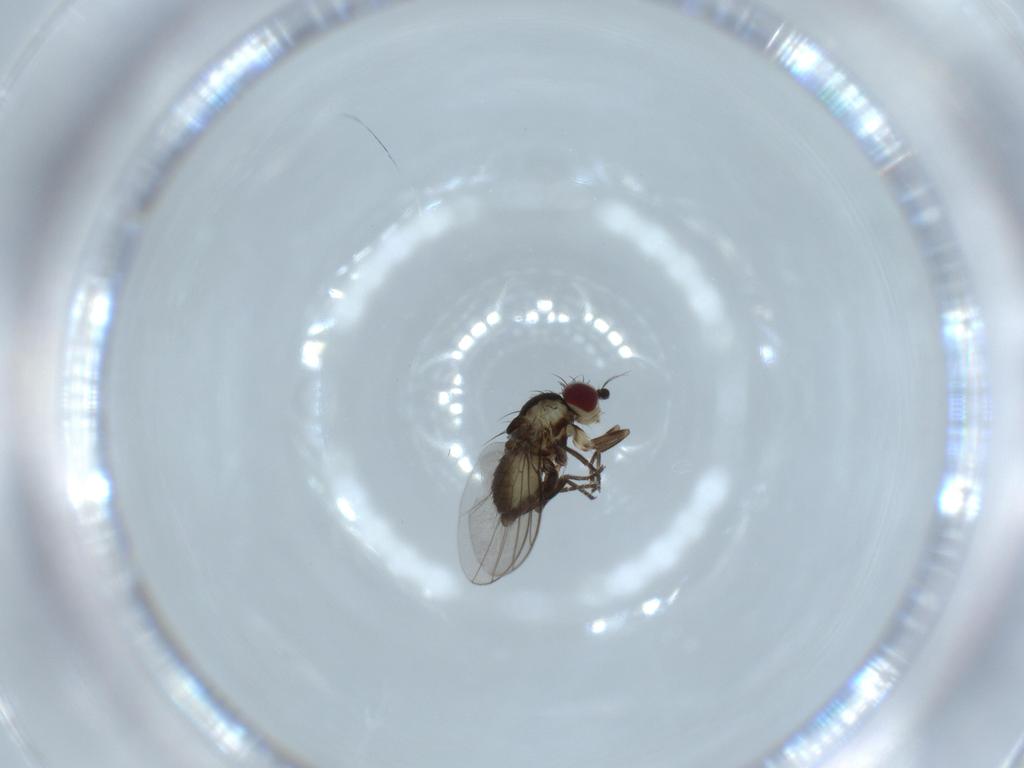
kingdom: Animalia
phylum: Arthropoda
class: Insecta
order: Diptera
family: Agromyzidae
